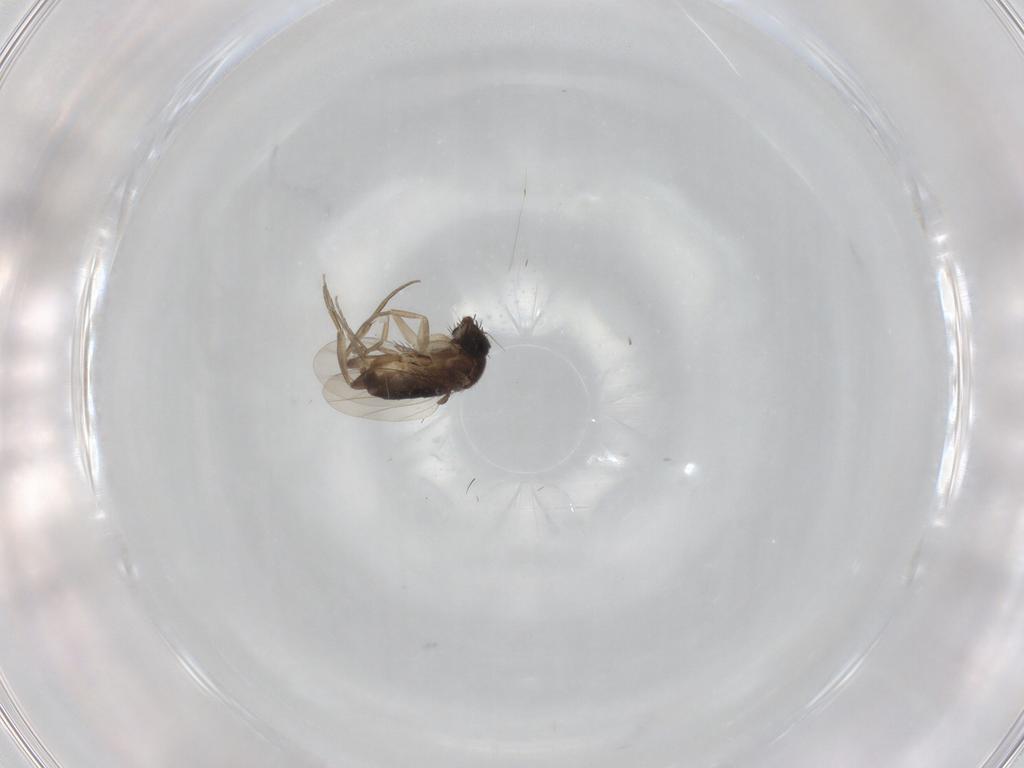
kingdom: Animalia
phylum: Arthropoda
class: Insecta
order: Diptera
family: Phoridae
